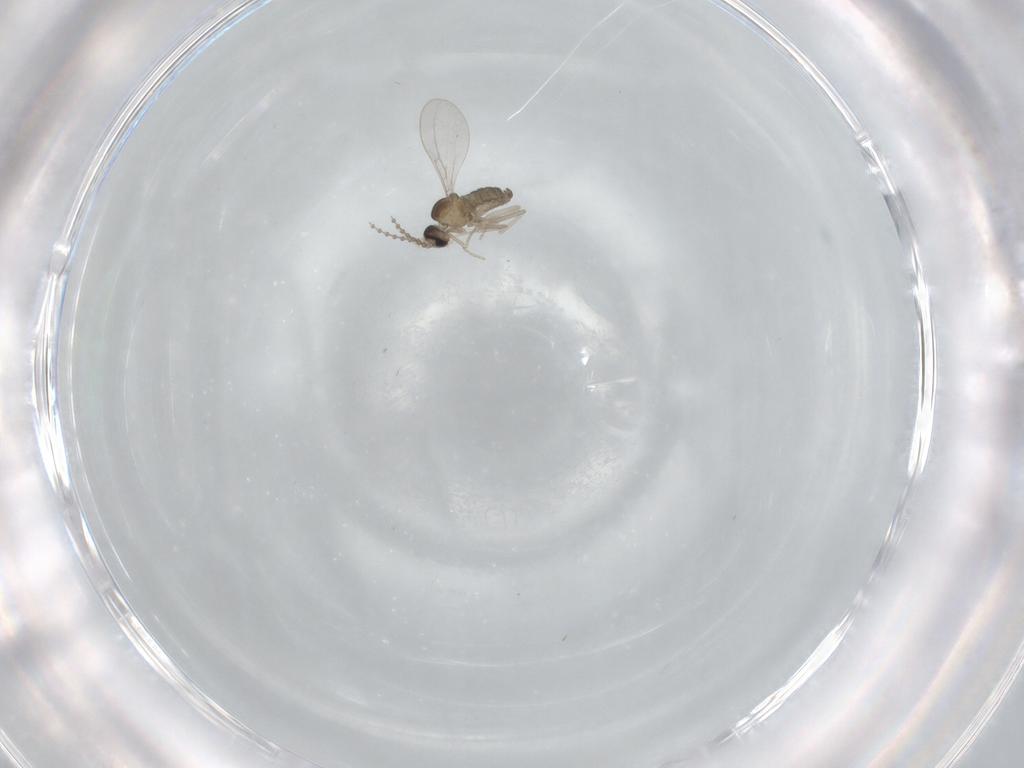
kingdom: Animalia
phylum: Arthropoda
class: Insecta
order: Diptera
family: Cecidomyiidae
